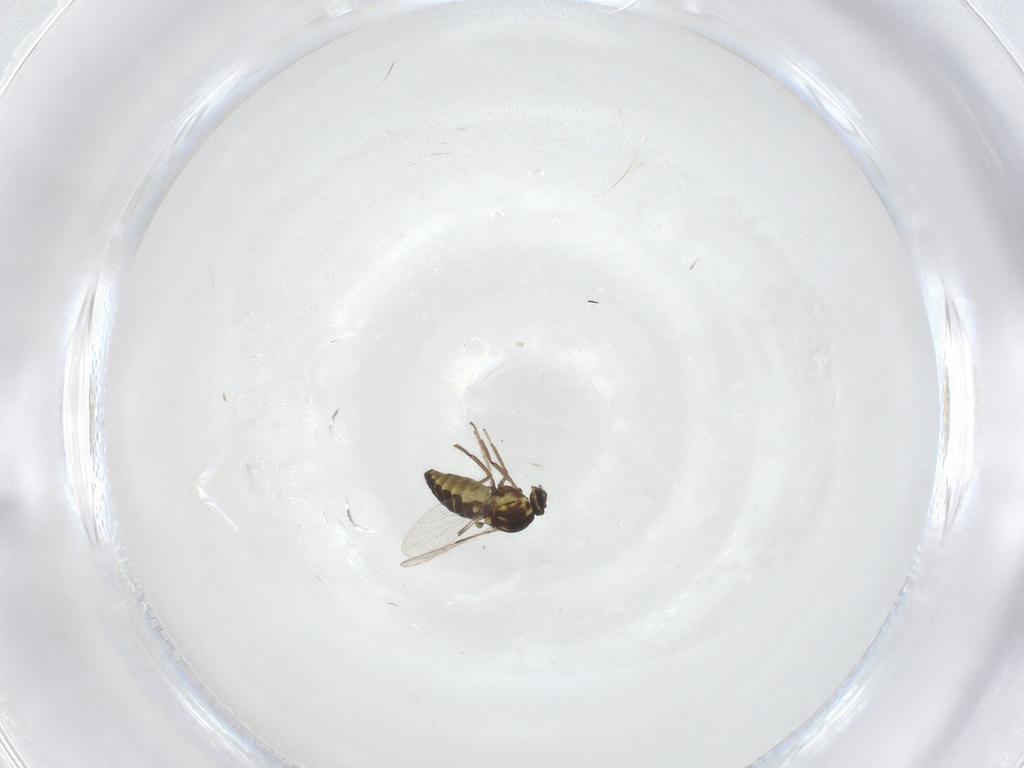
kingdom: Animalia
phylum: Arthropoda
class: Insecta
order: Diptera
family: Ceratopogonidae
